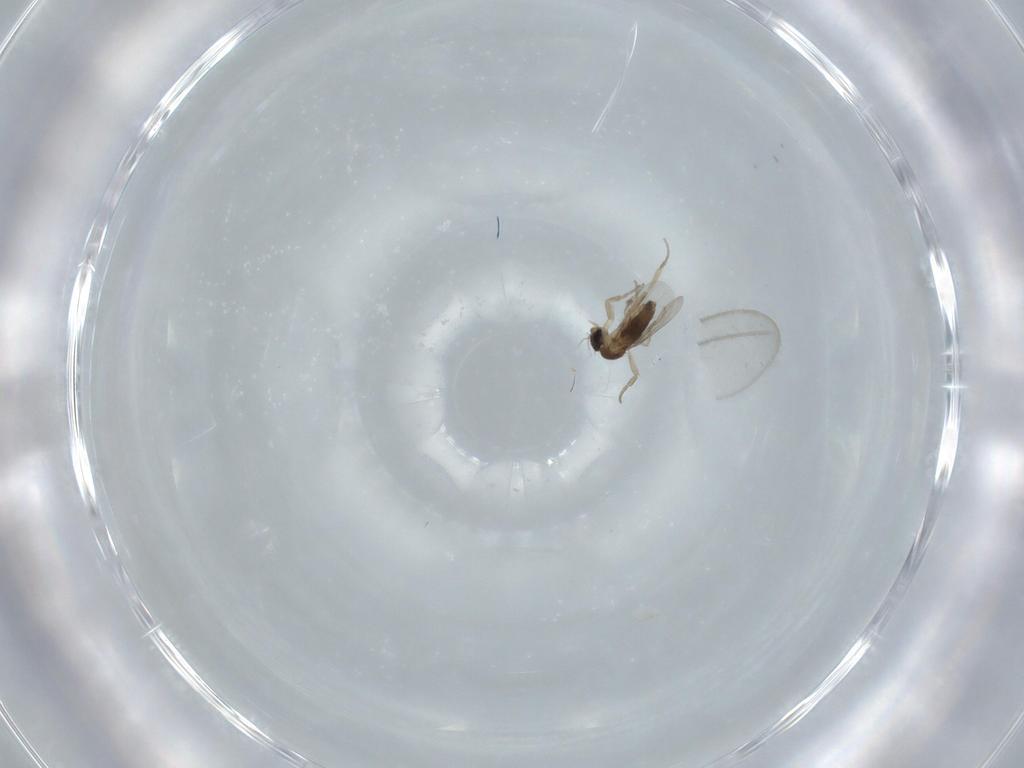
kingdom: Animalia
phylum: Arthropoda
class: Insecta
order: Diptera
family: Phoridae
